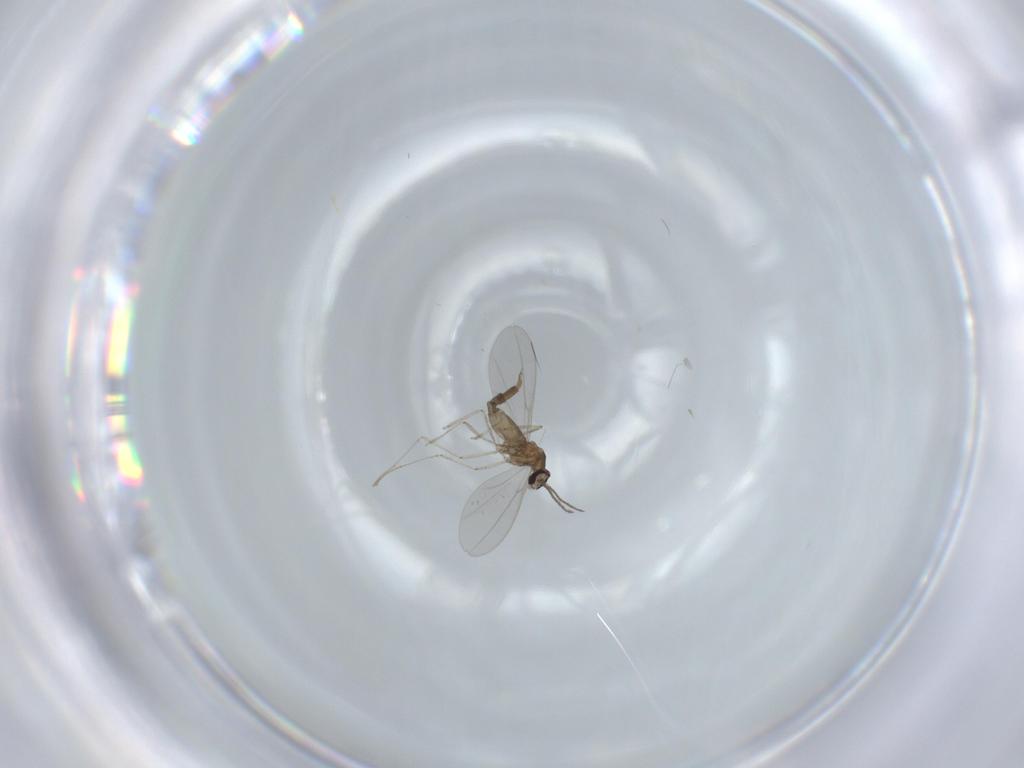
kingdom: Animalia
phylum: Arthropoda
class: Insecta
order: Diptera
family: Cecidomyiidae
